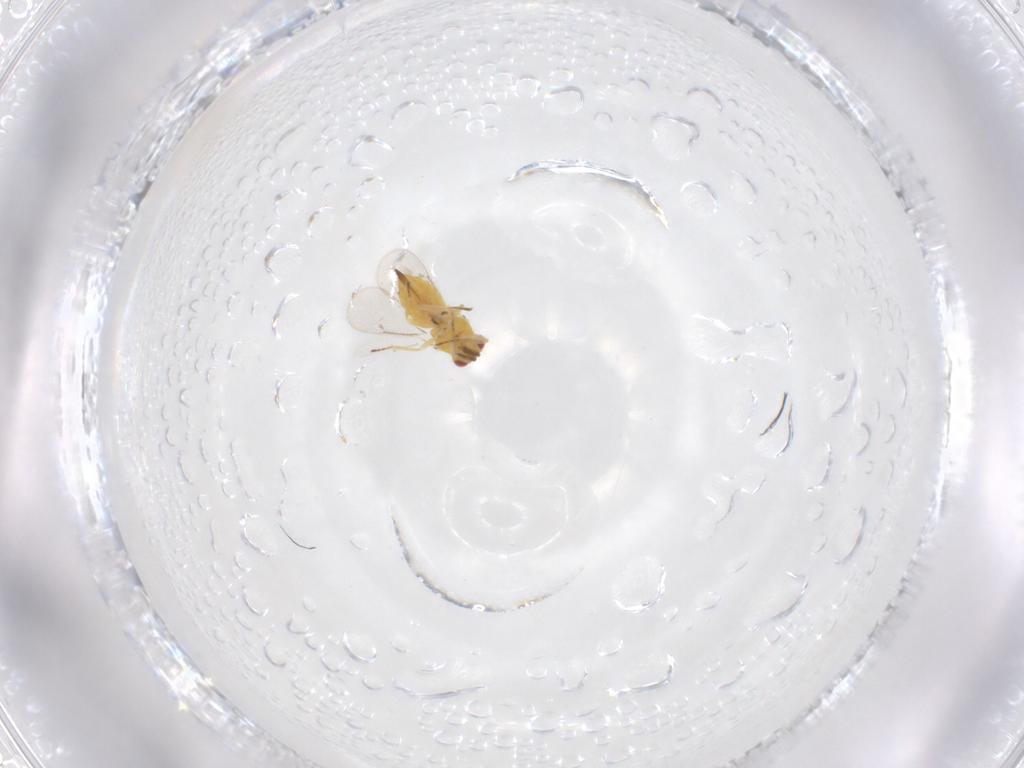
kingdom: Animalia
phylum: Arthropoda
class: Insecta
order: Hymenoptera
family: Eulophidae
